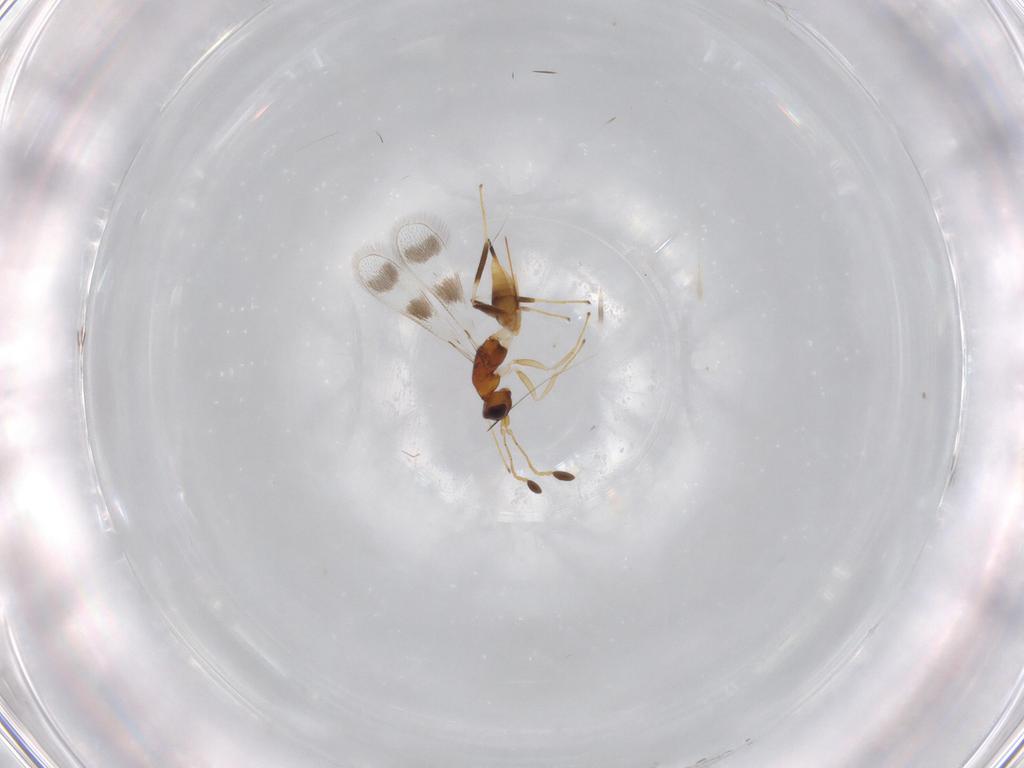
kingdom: Animalia
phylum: Arthropoda
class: Insecta
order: Hymenoptera
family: Mymaridae
